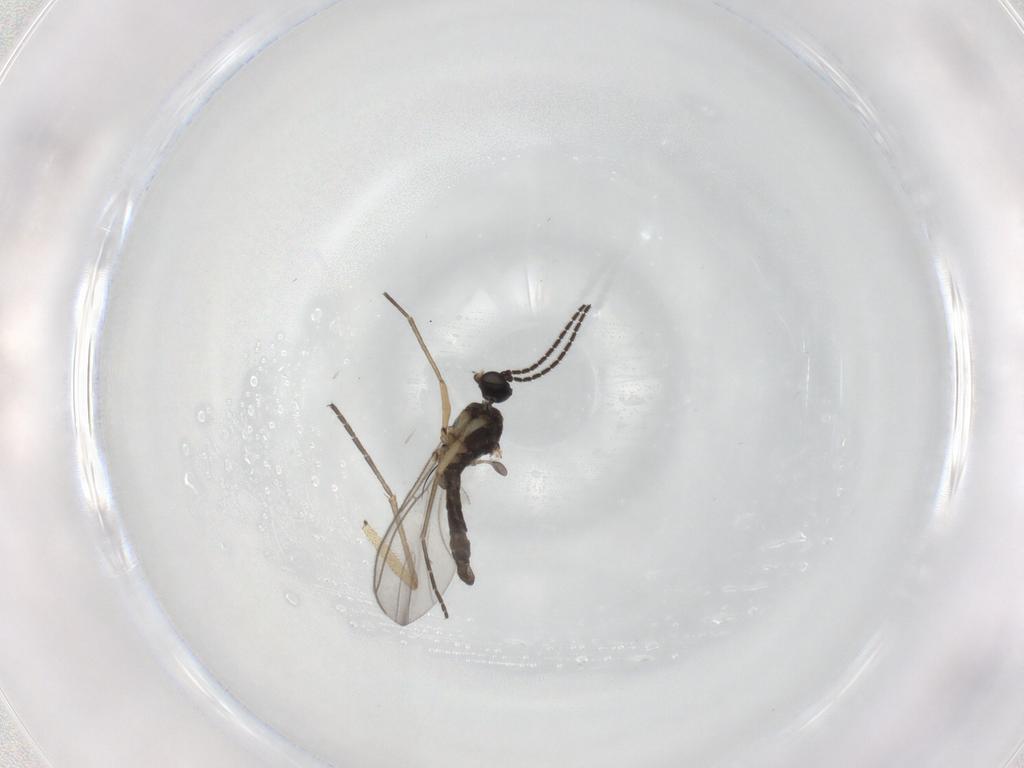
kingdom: Animalia
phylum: Arthropoda
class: Insecta
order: Diptera
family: Sciaridae
